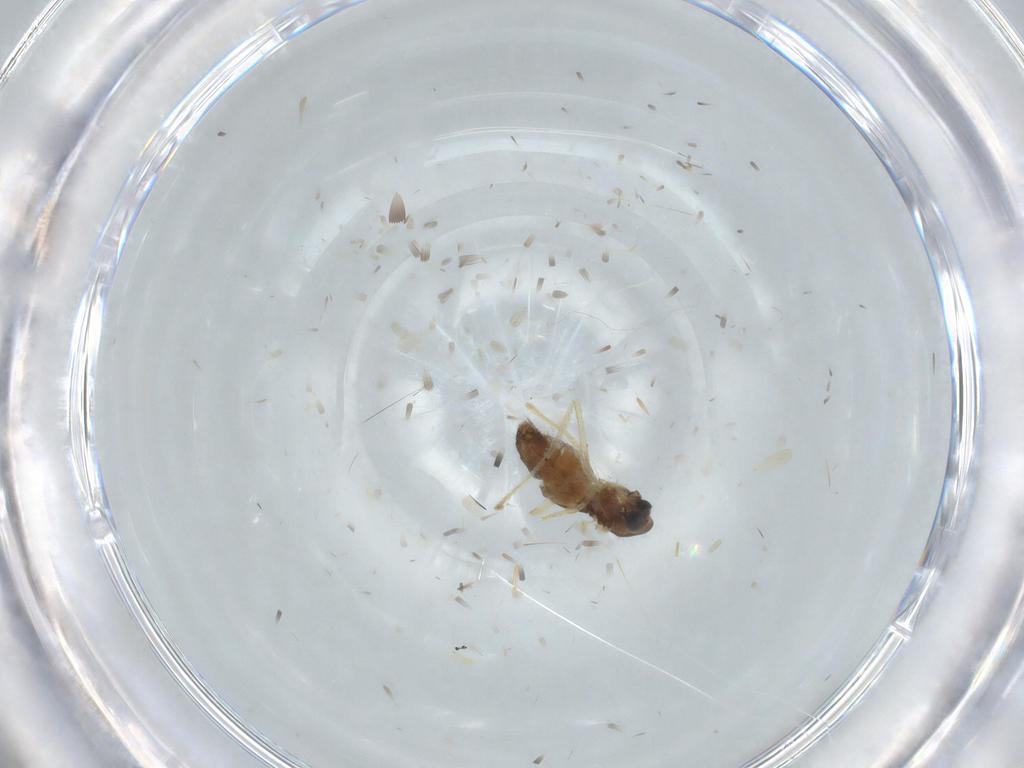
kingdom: Animalia
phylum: Arthropoda
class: Insecta
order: Diptera
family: Chironomidae
